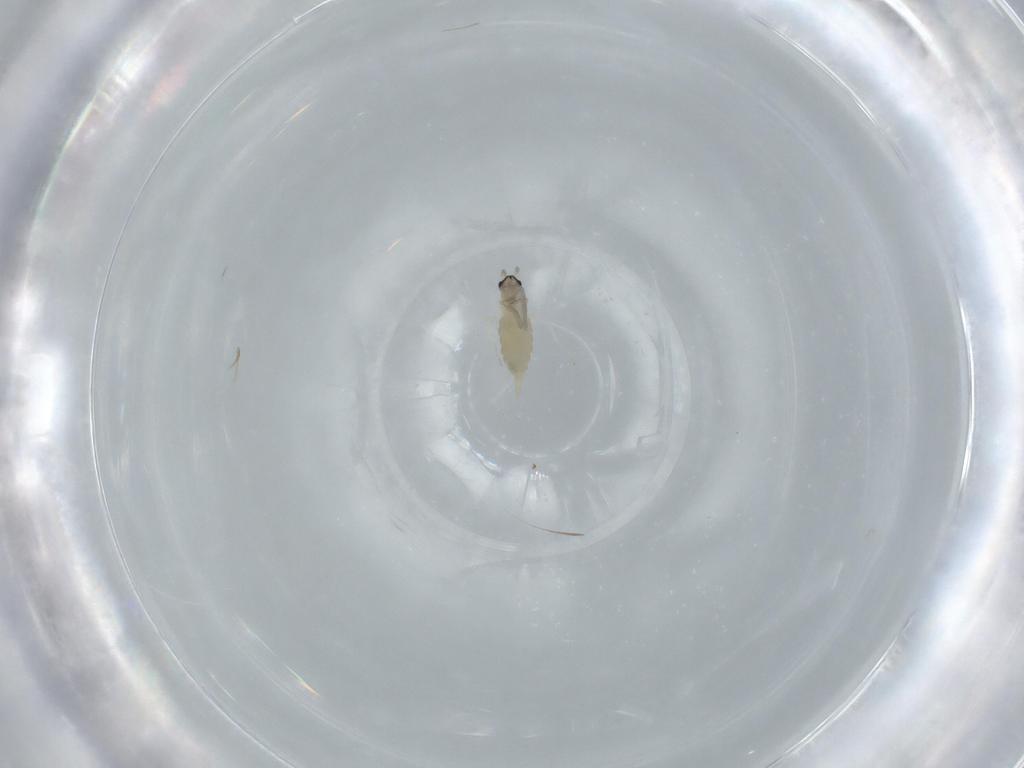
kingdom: Animalia
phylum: Arthropoda
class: Insecta
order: Diptera
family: Cecidomyiidae
